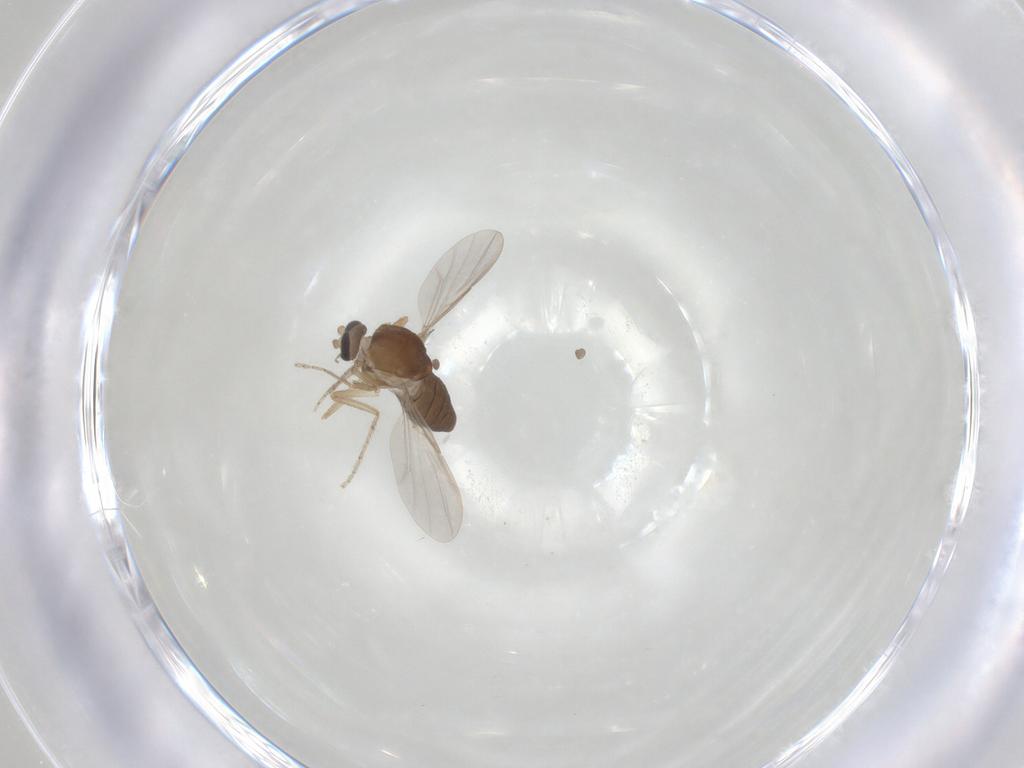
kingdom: Animalia
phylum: Arthropoda
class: Insecta
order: Diptera
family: Ceratopogonidae
